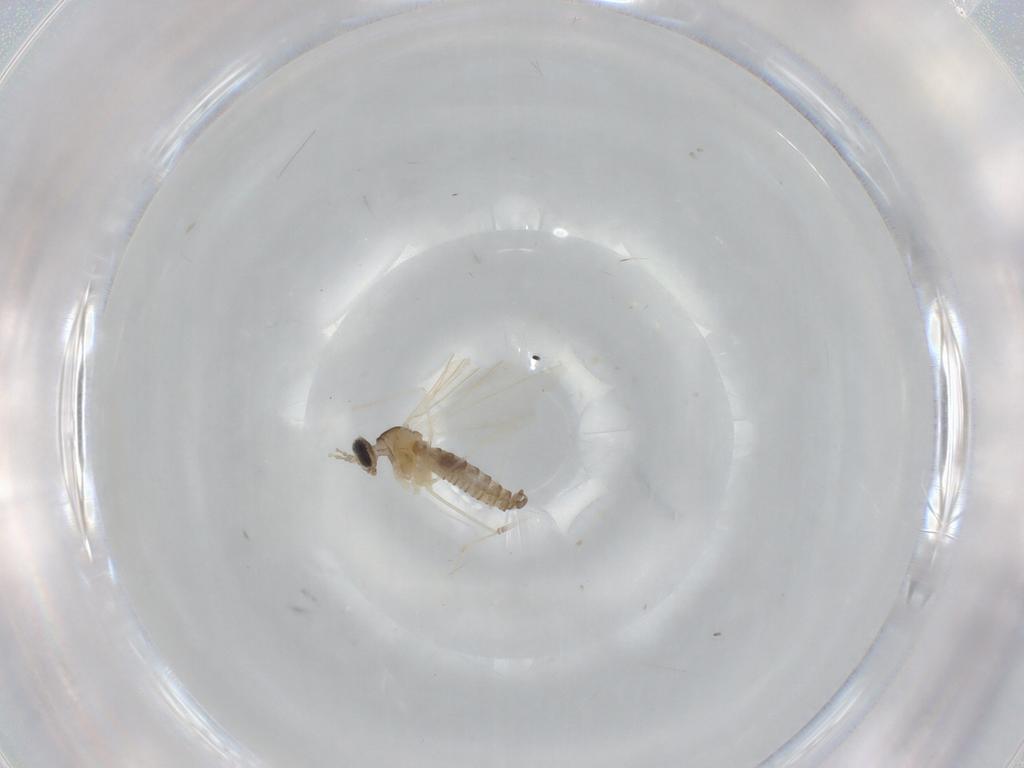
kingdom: Animalia
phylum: Arthropoda
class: Insecta
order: Diptera
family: Cecidomyiidae
